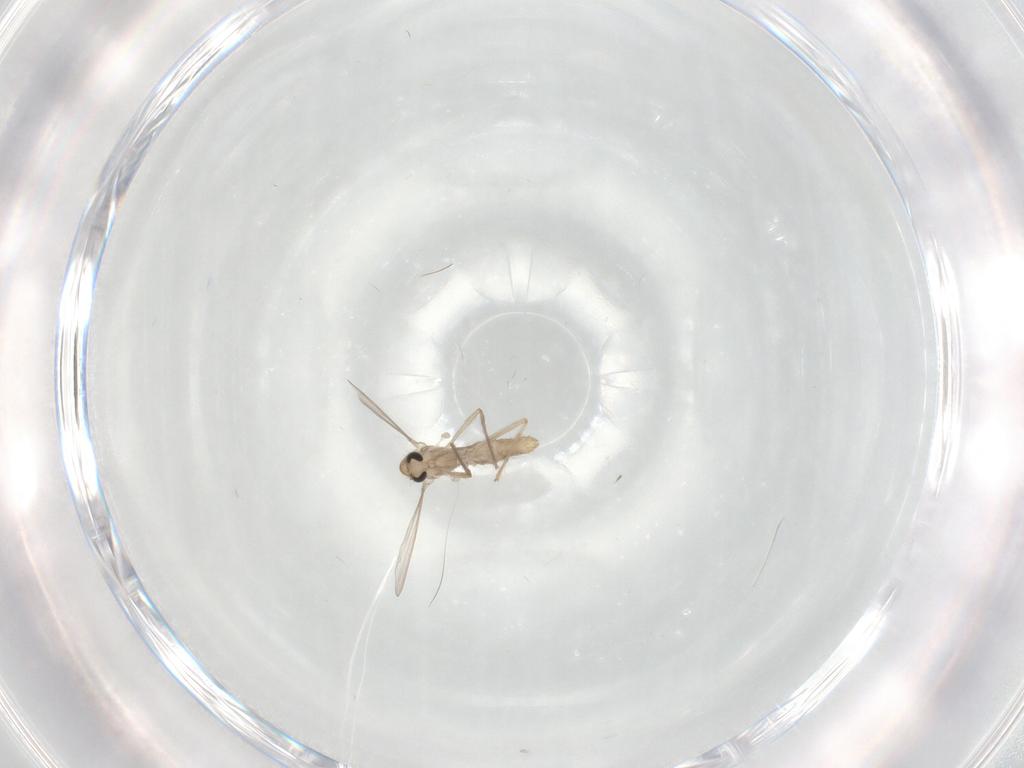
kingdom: Animalia
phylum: Arthropoda
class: Insecta
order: Diptera
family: Chironomidae
